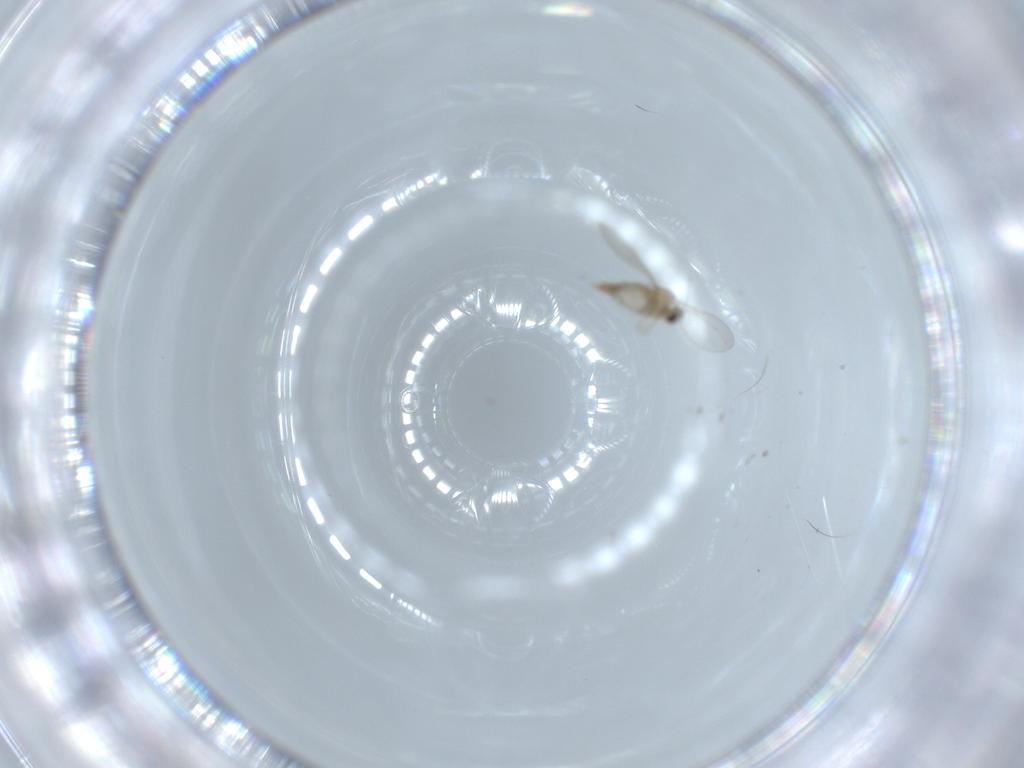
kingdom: Animalia
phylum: Arthropoda
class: Insecta
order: Diptera
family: Cecidomyiidae
